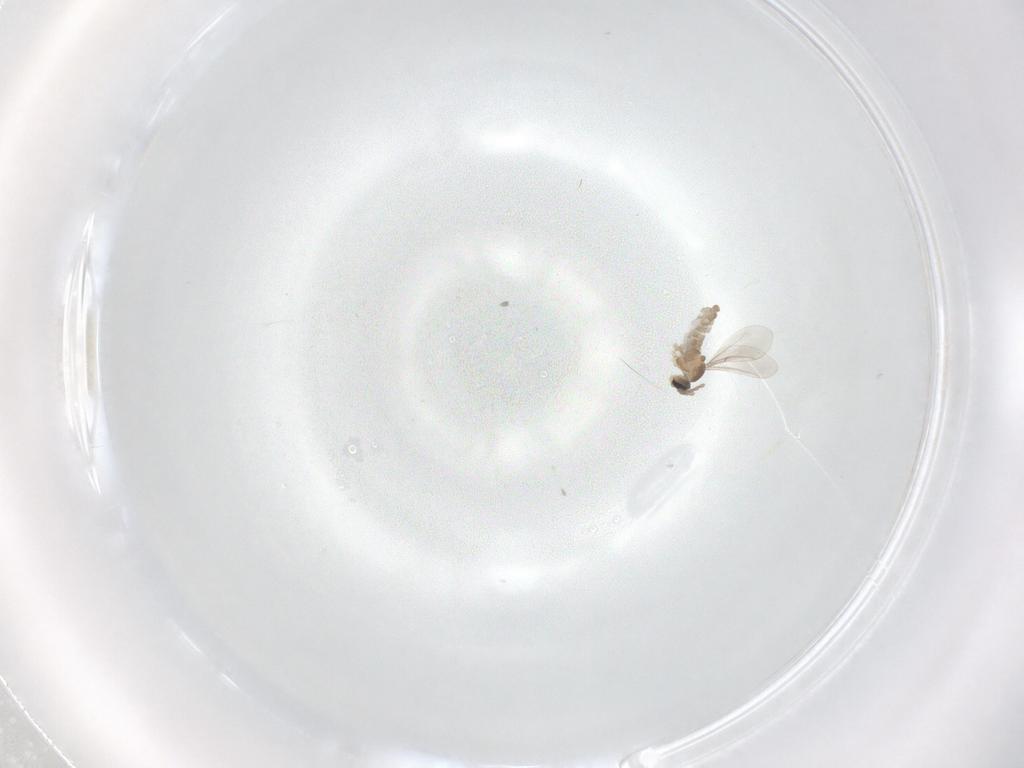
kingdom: Animalia
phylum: Arthropoda
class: Insecta
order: Diptera
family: Cecidomyiidae
